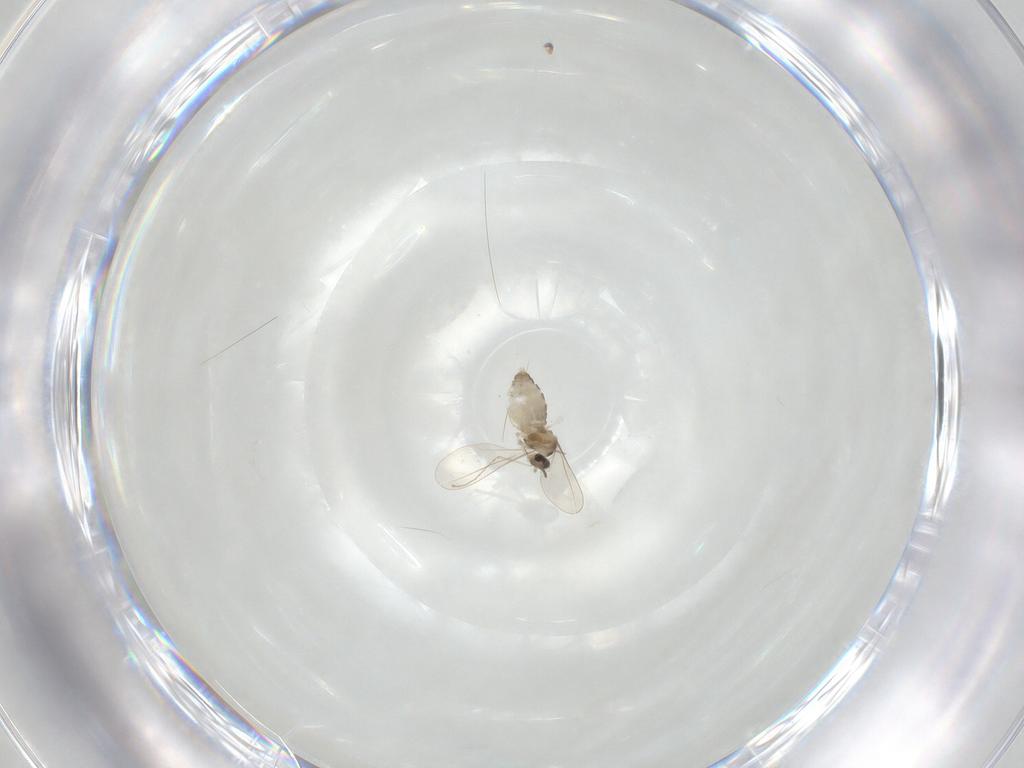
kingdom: Animalia
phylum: Arthropoda
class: Insecta
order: Diptera
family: Cecidomyiidae
